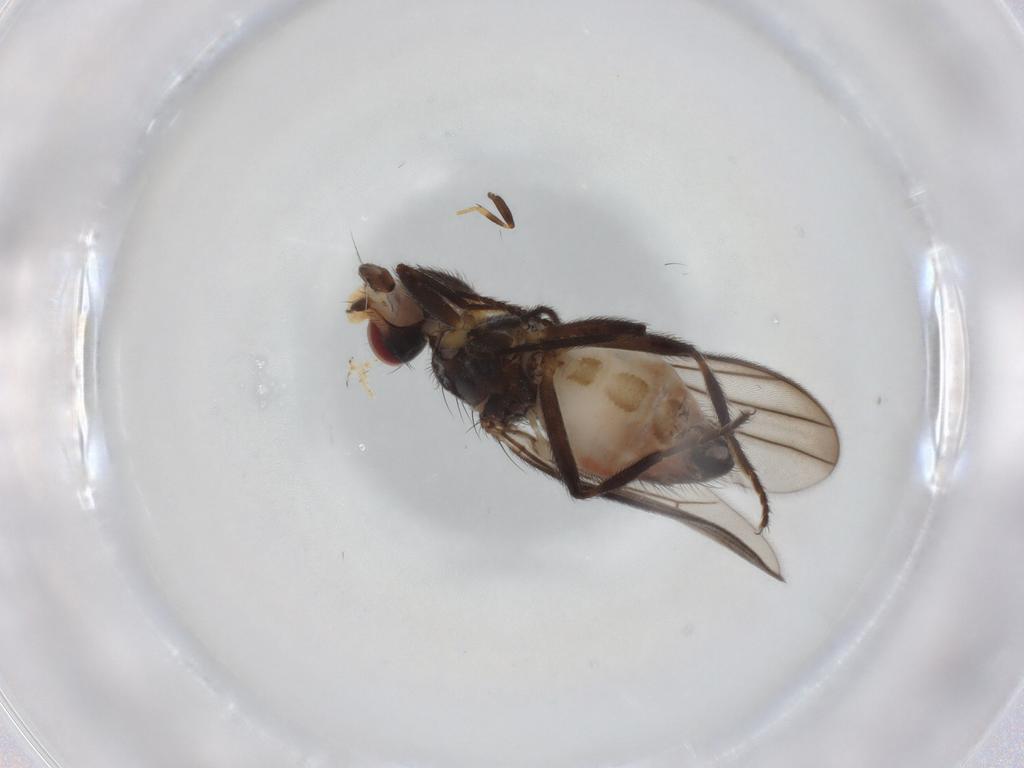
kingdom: Animalia
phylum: Arthropoda
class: Insecta
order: Diptera
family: Chloropidae
